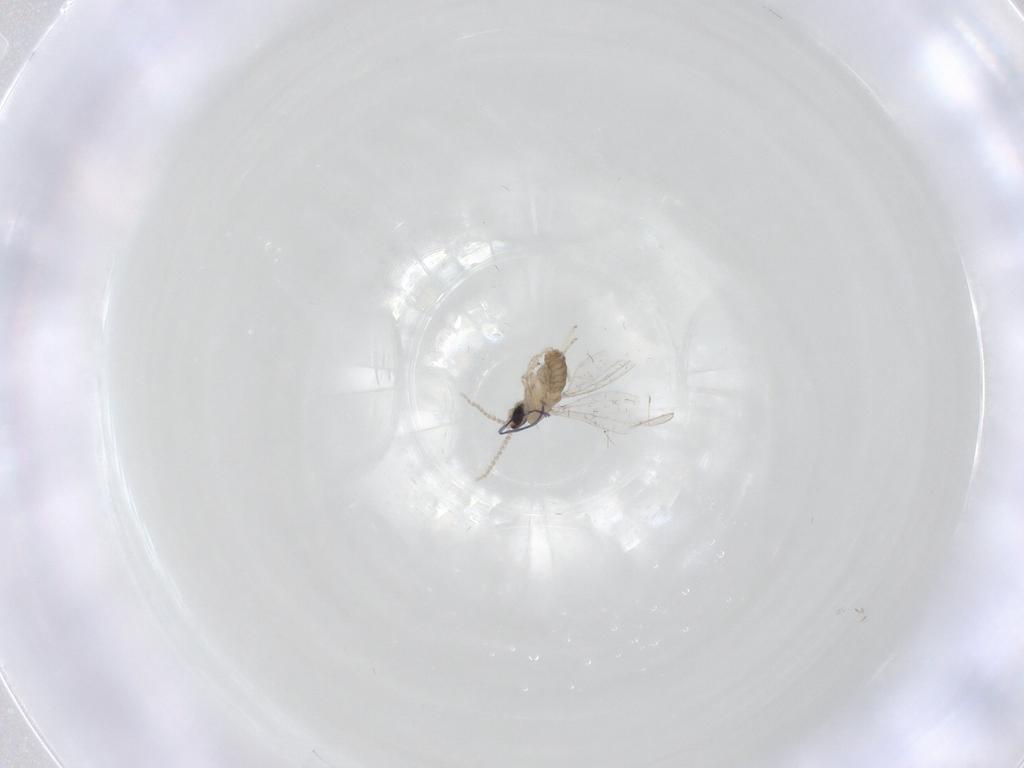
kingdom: Animalia
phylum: Arthropoda
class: Insecta
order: Diptera
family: Cecidomyiidae
